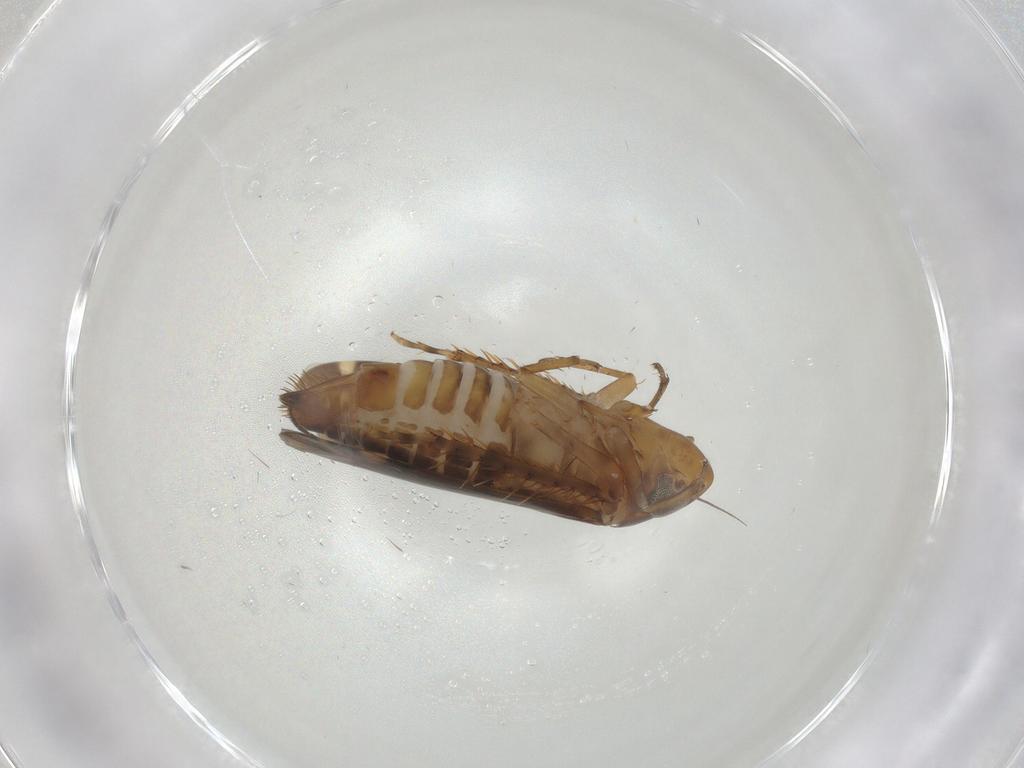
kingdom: Animalia
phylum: Arthropoda
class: Insecta
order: Hemiptera
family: Cicadellidae
